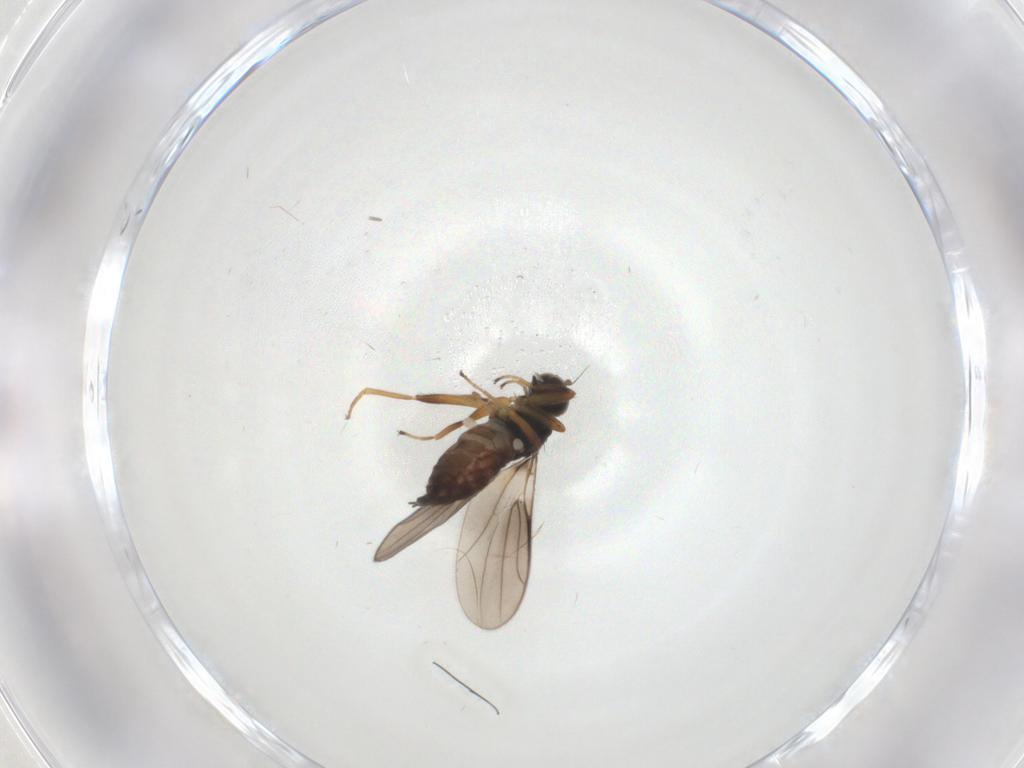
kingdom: Animalia
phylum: Arthropoda
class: Insecta
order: Diptera
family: Hybotidae
